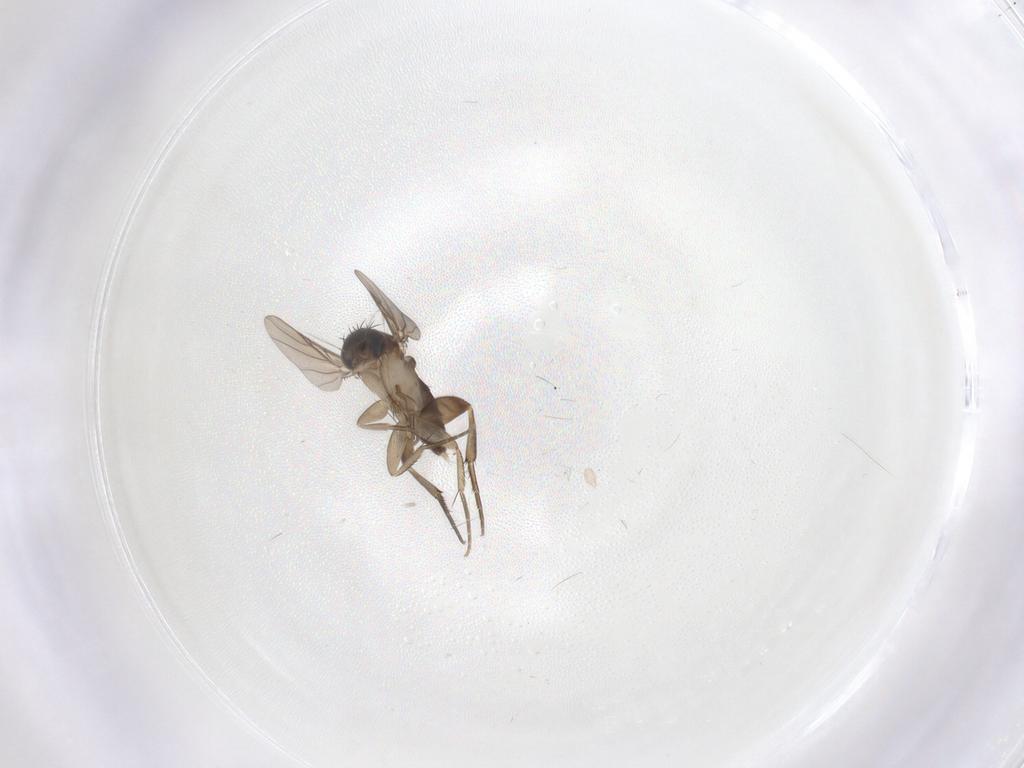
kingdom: Animalia
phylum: Arthropoda
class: Insecta
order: Diptera
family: Phoridae
